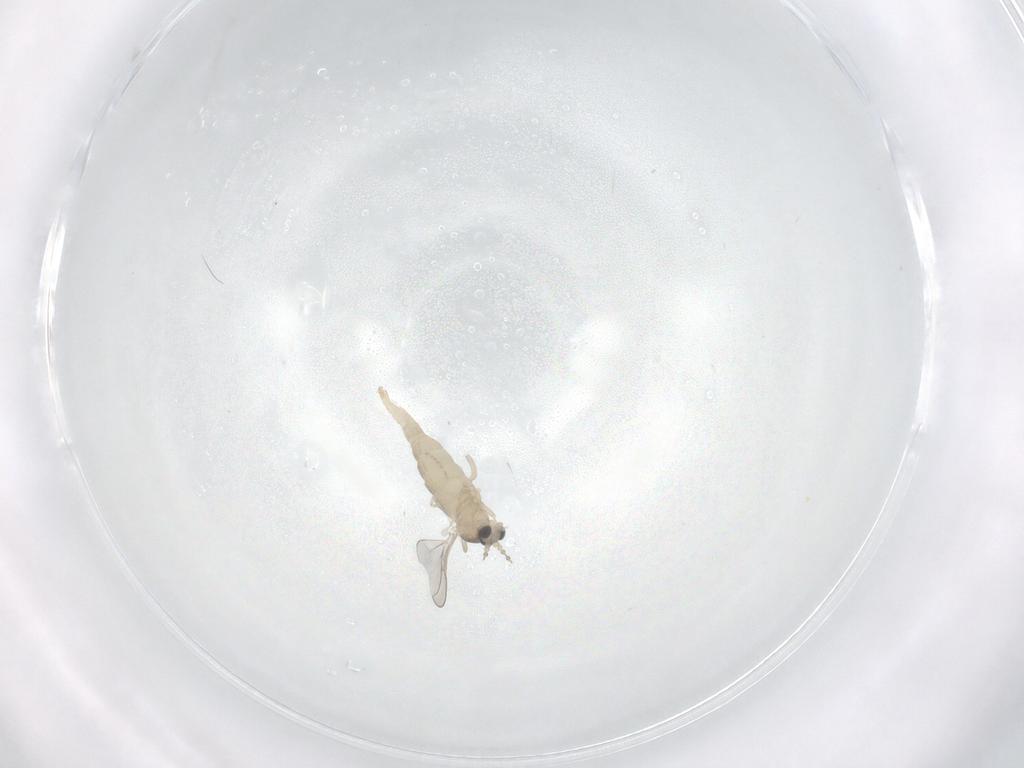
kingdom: Animalia
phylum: Arthropoda
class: Insecta
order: Diptera
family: Cecidomyiidae
